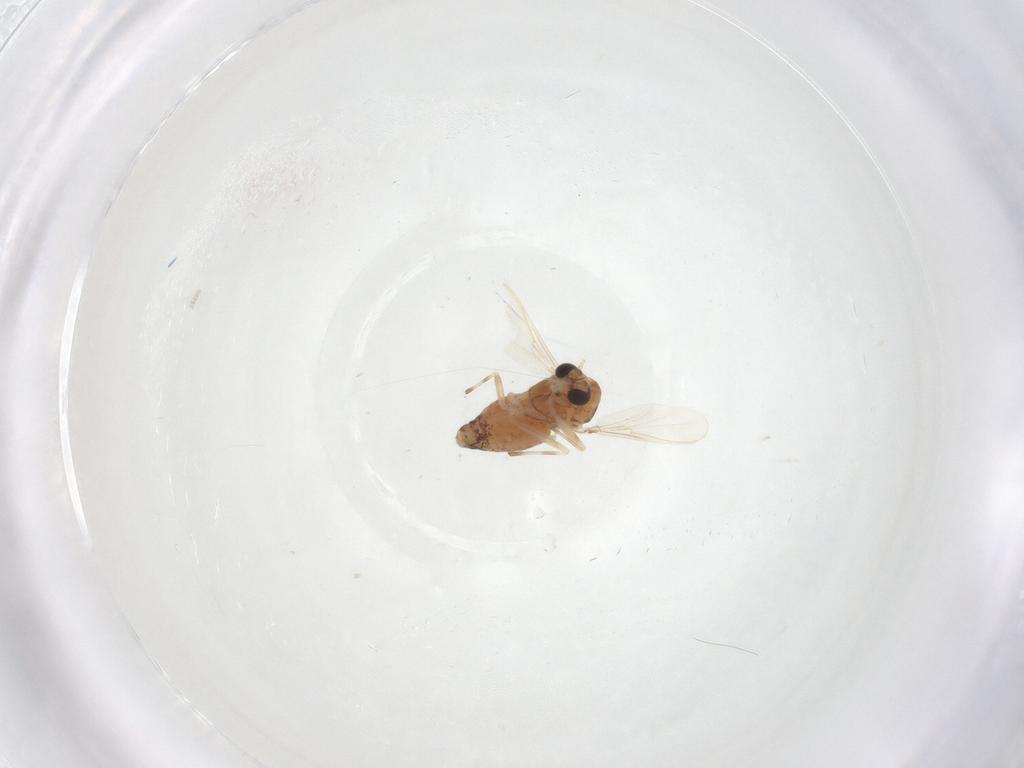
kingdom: Animalia
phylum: Arthropoda
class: Insecta
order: Diptera
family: Chironomidae
